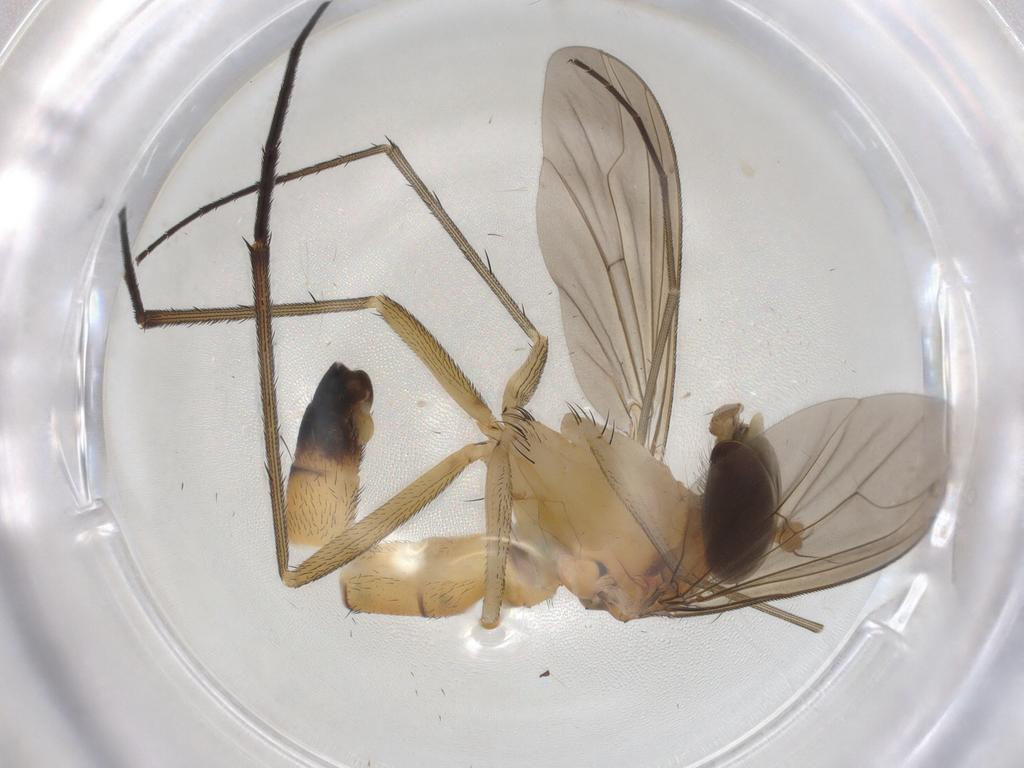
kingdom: Animalia
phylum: Arthropoda
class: Insecta
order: Diptera
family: Dolichopodidae
